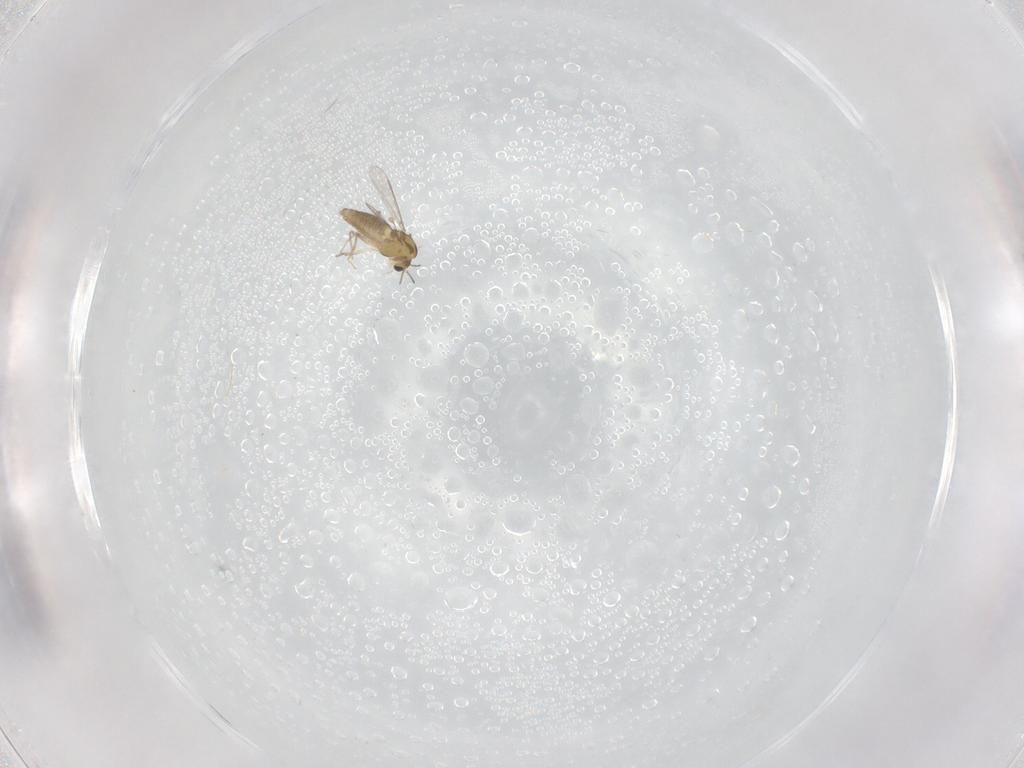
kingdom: Animalia
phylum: Arthropoda
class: Insecta
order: Diptera
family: Chironomidae
